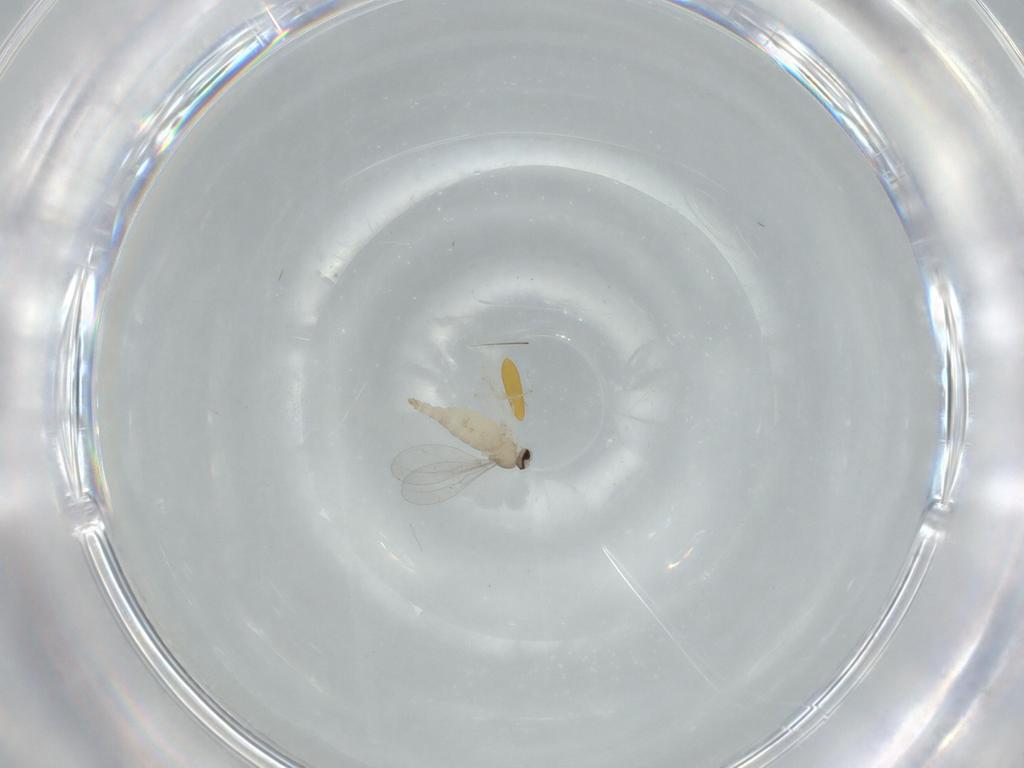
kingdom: Animalia
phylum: Arthropoda
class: Insecta
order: Diptera
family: Cecidomyiidae
